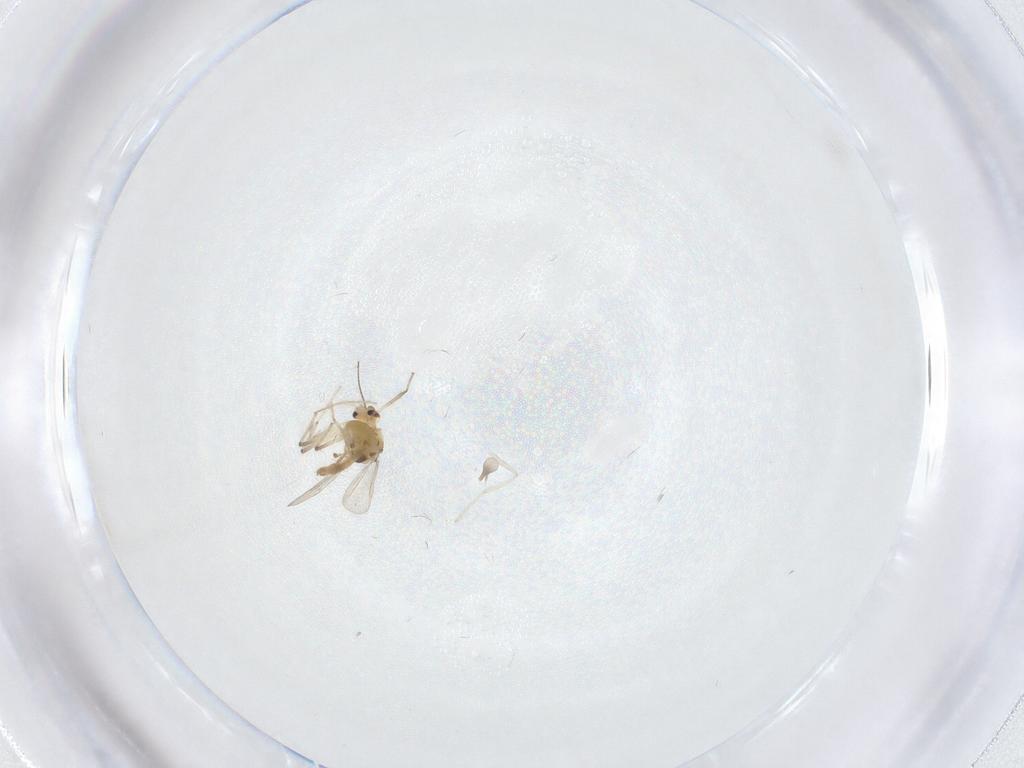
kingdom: Animalia
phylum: Arthropoda
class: Insecta
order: Diptera
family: Chironomidae
